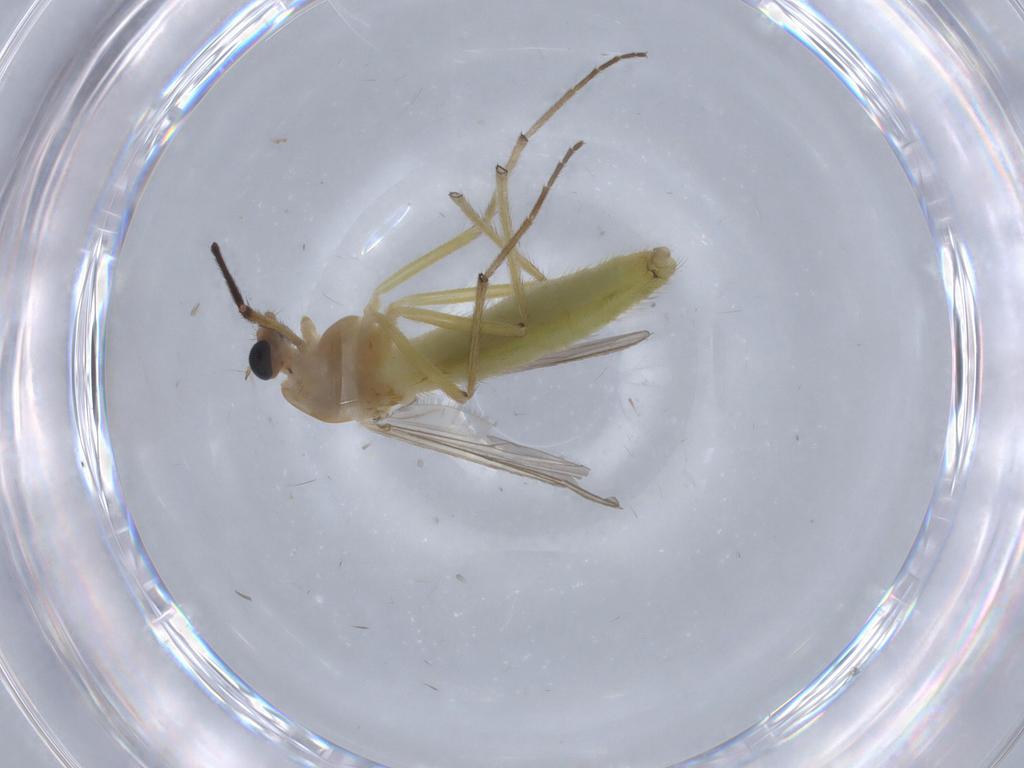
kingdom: Animalia
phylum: Arthropoda
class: Insecta
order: Diptera
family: Chironomidae
